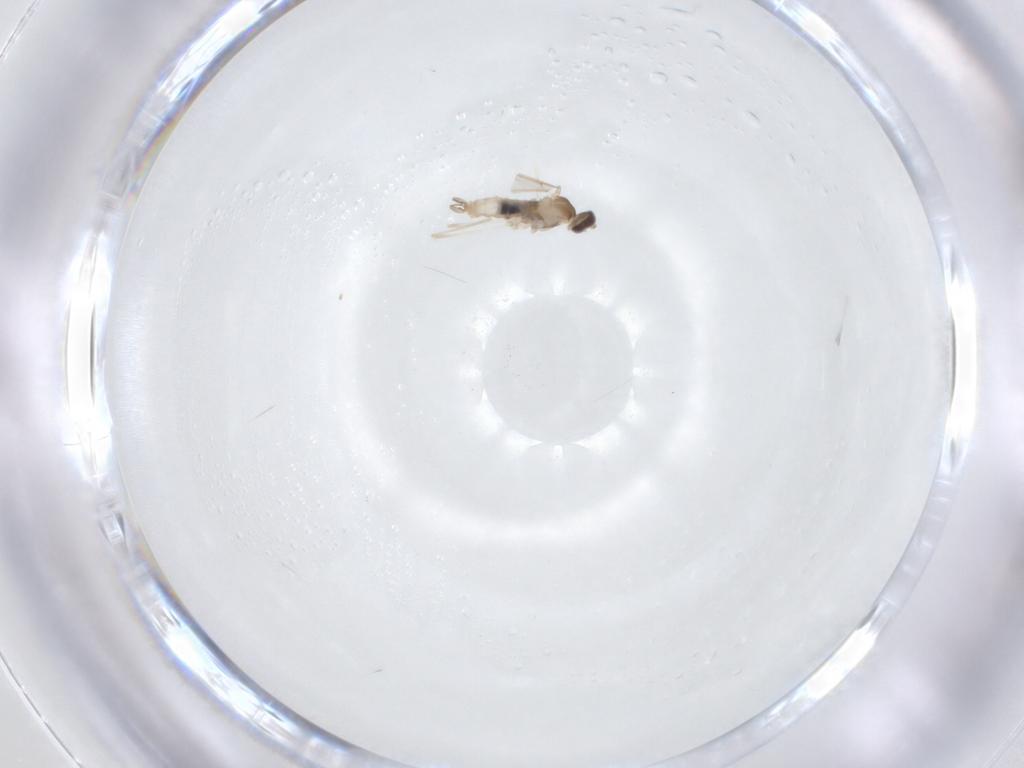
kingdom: Animalia
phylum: Arthropoda
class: Insecta
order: Diptera
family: Cecidomyiidae
